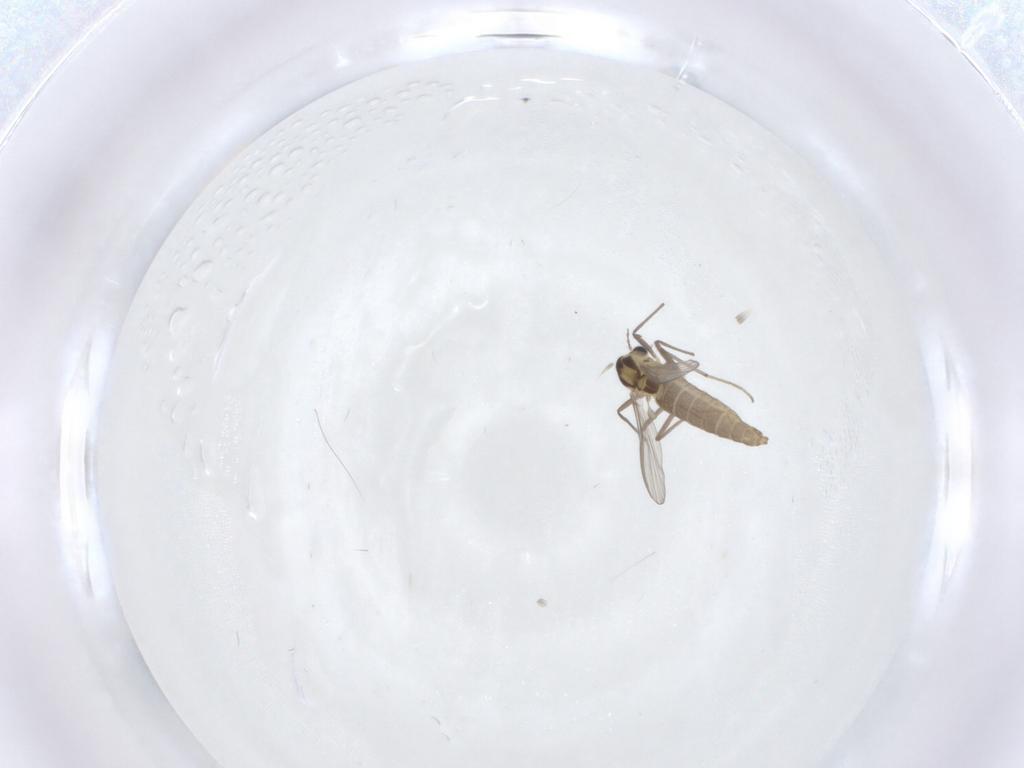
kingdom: Animalia
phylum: Arthropoda
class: Insecta
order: Diptera
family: Chironomidae
